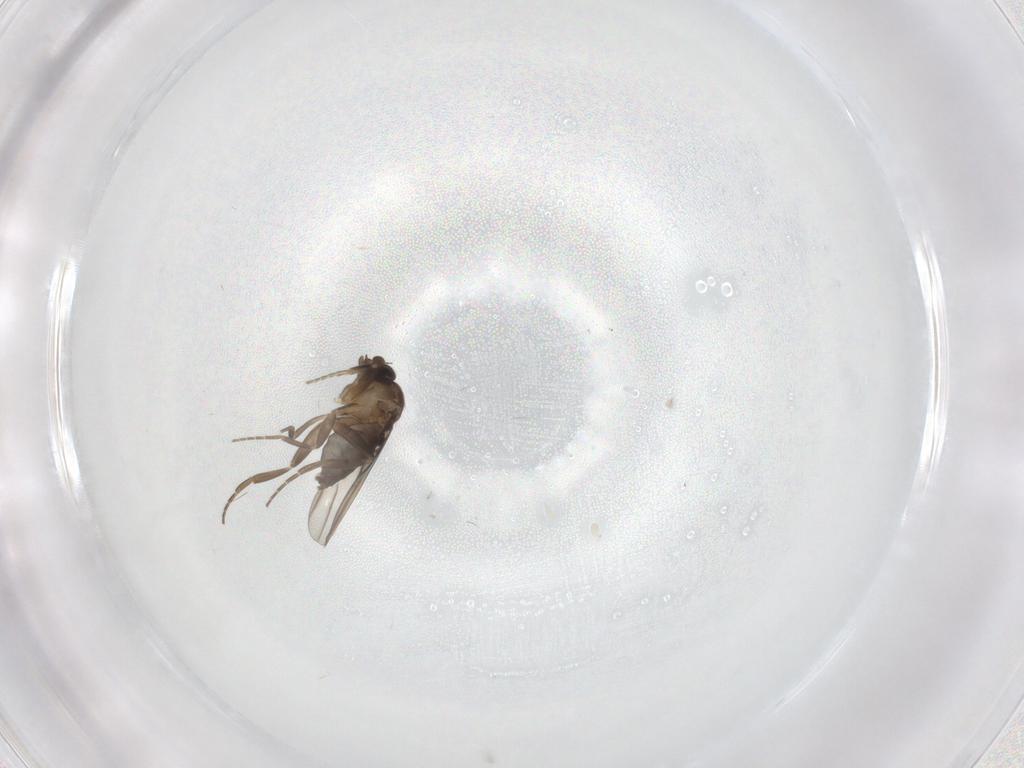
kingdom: Animalia
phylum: Arthropoda
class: Insecta
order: Diptera
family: Phoridae
